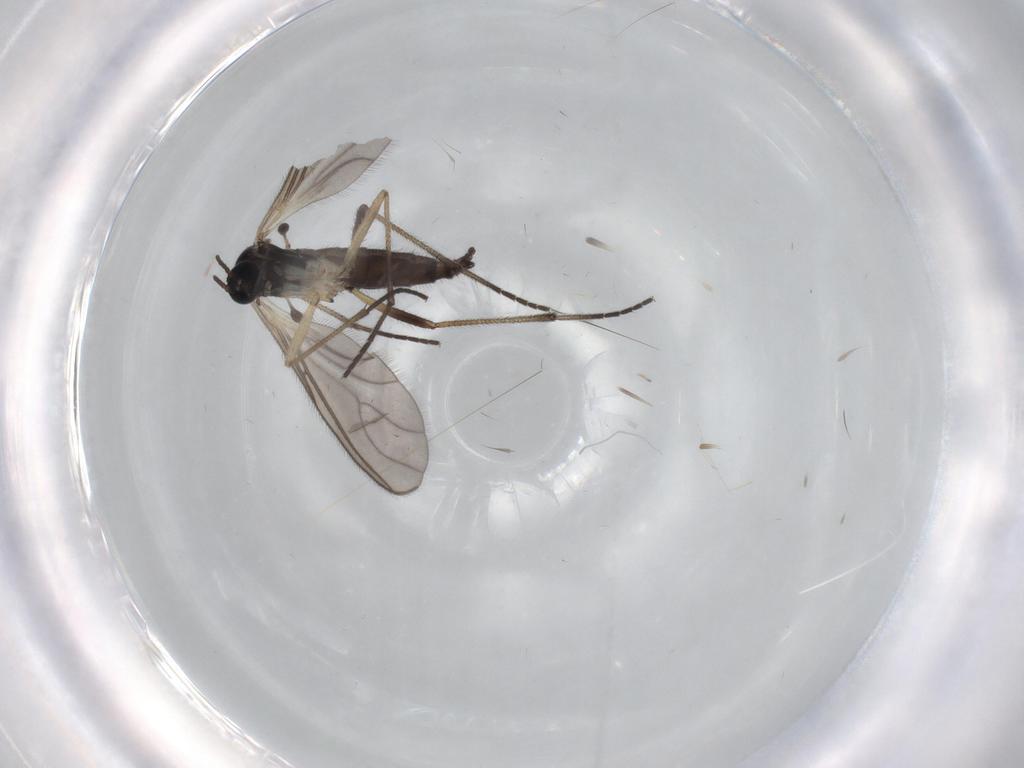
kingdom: Animalia
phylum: Arthropoda
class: Insecta
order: Diptera
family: Sciaridae
